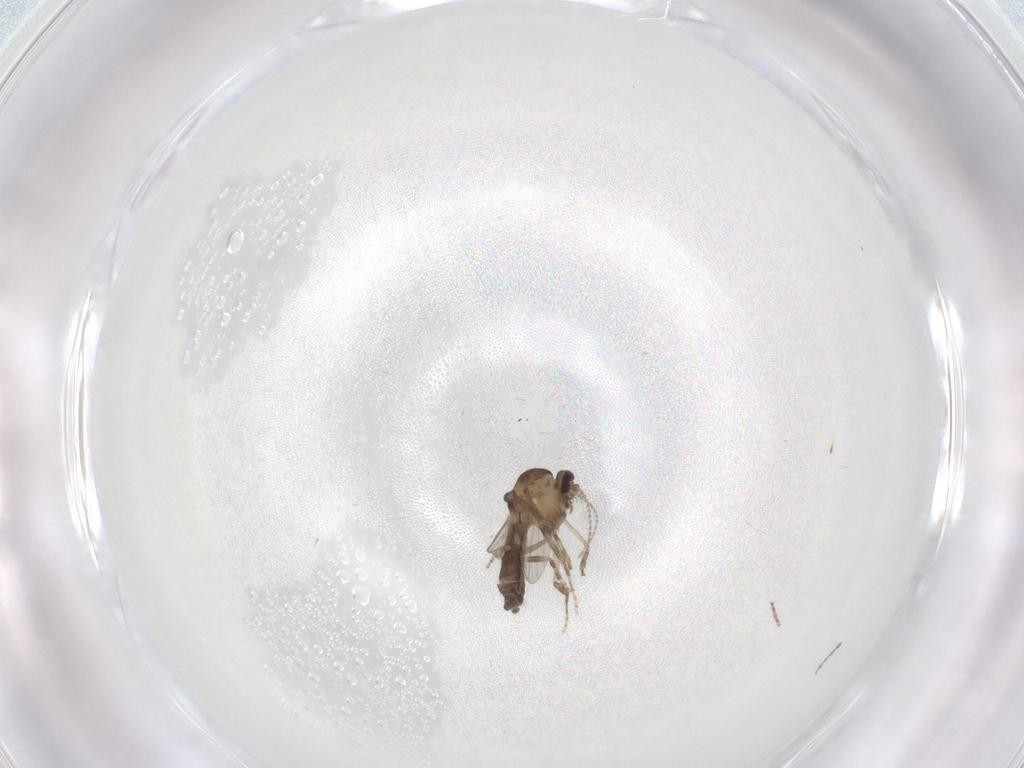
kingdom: Animalia
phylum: Arthropoda
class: Insecta
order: Diptera
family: Ceratopogonidae
